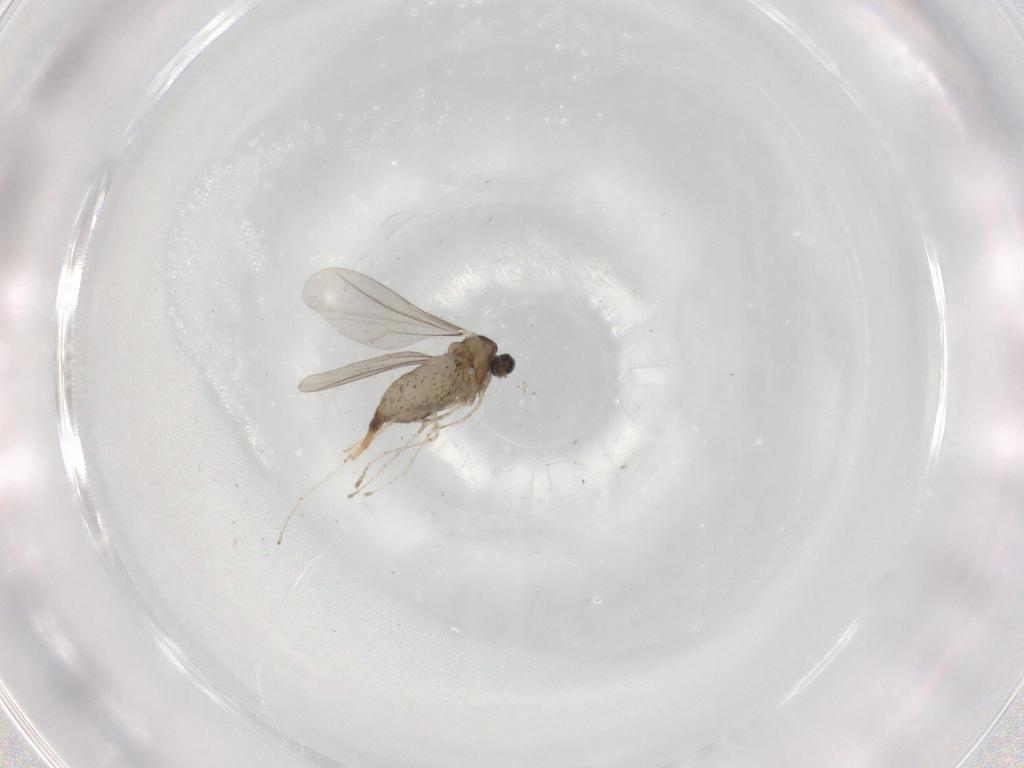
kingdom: Animalia
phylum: Arthropoda
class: Insecta
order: Diptera
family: Cecidomyiidae
